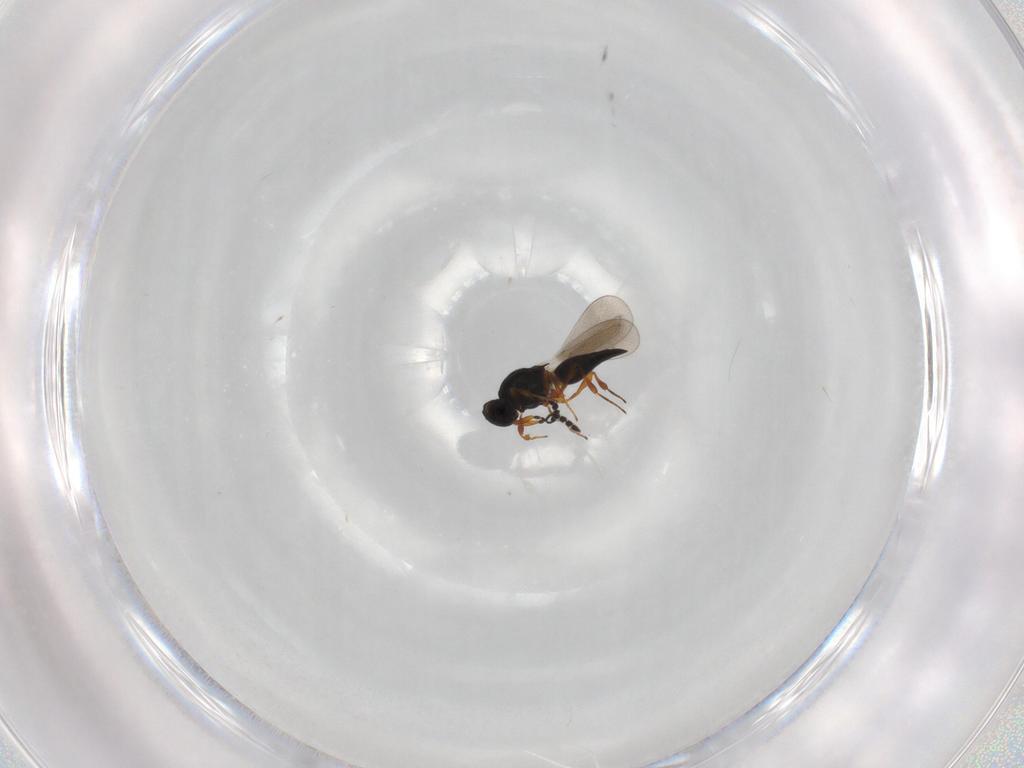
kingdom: Animalia
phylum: Arthropoda
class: Insecta
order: Hymenoptera
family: Platygastridae
